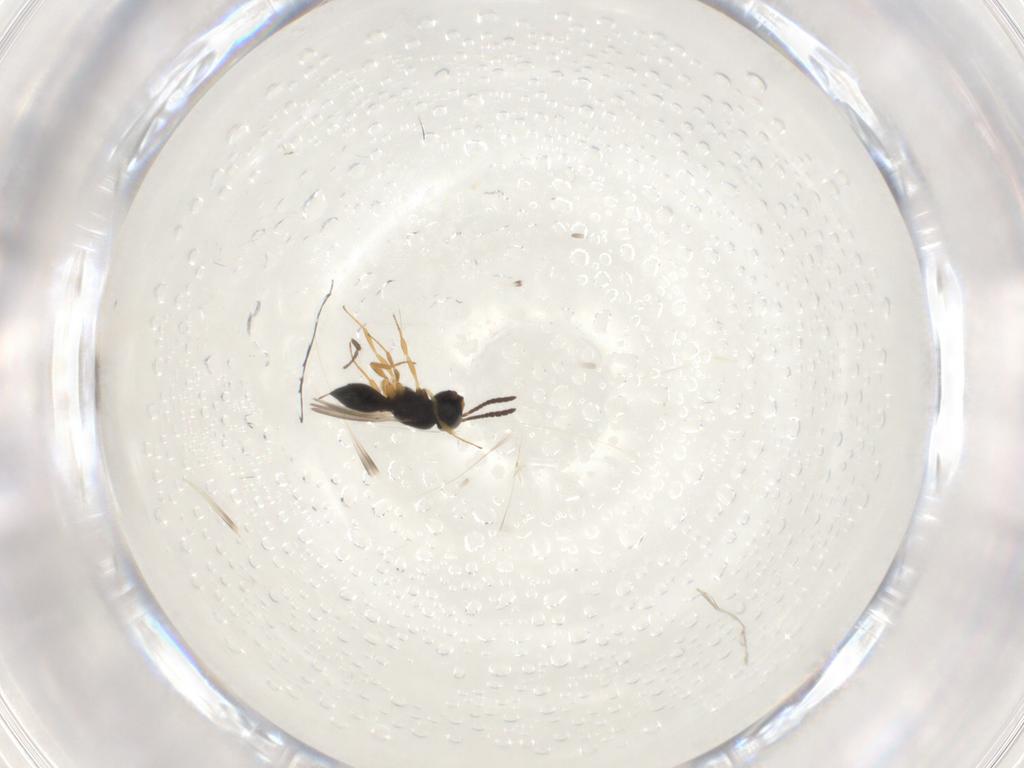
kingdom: Animalia
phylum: Arthropoda
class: Insecta
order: Hymenoptera
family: Scelionidae
